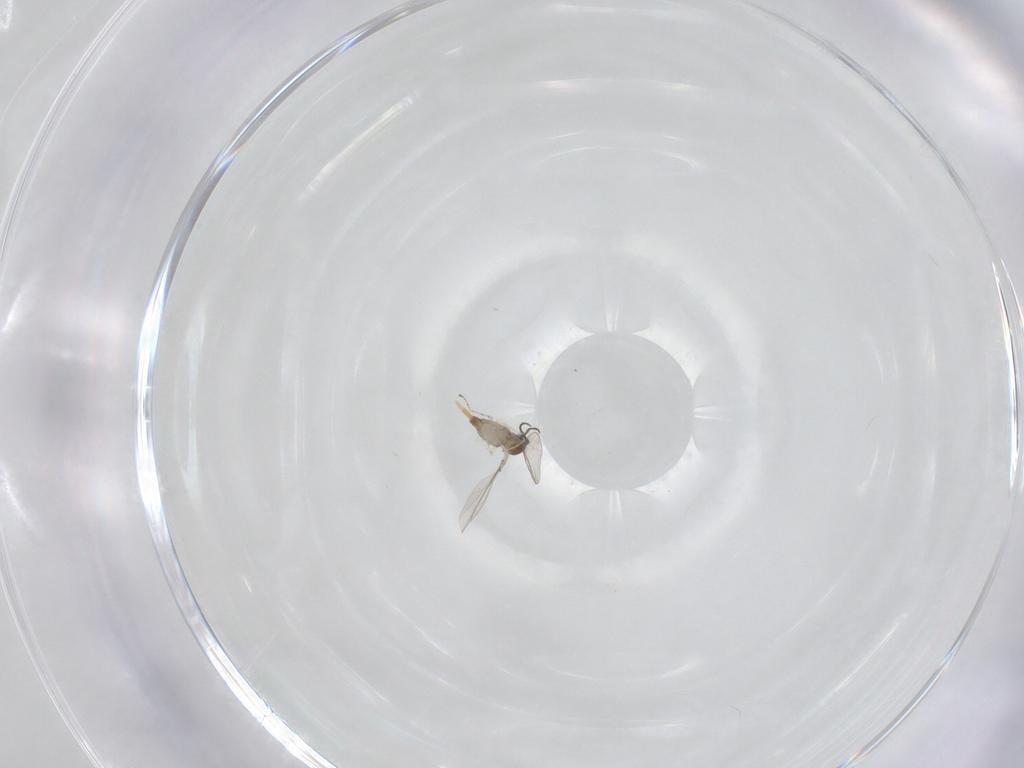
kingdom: Animalia
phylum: Arthropoda
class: Insecta
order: Diptera
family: Cecidomyiidae
